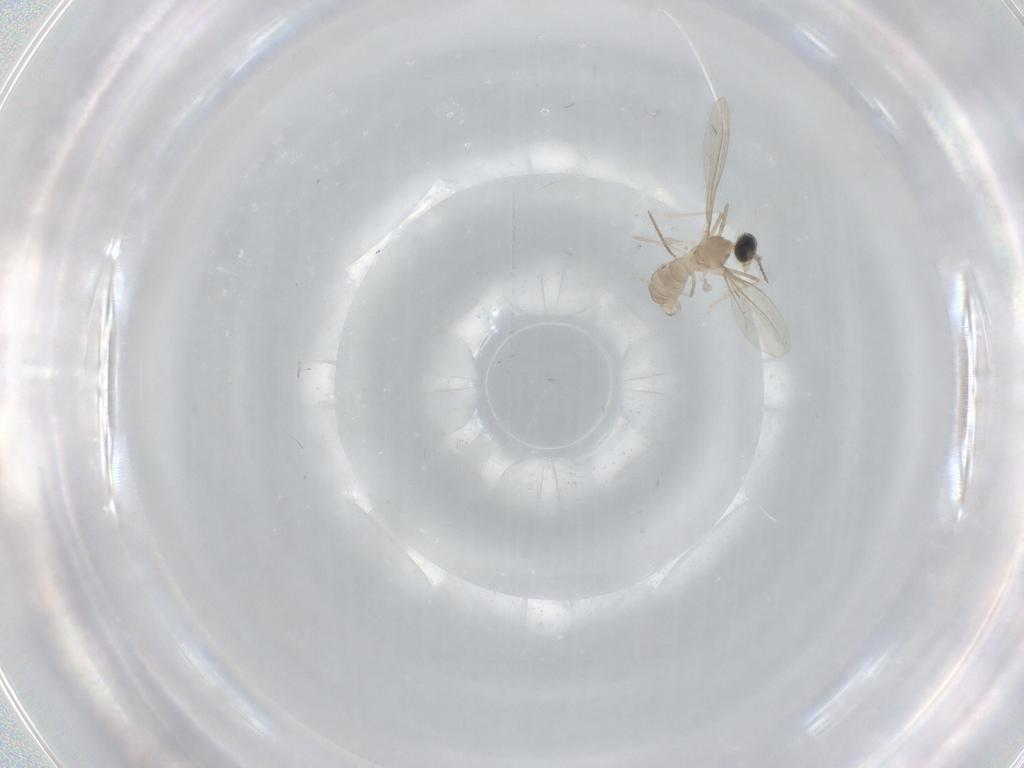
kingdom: Animalia
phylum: Arthropoda
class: Insecta
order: Diptera
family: Cecidomyiidae
